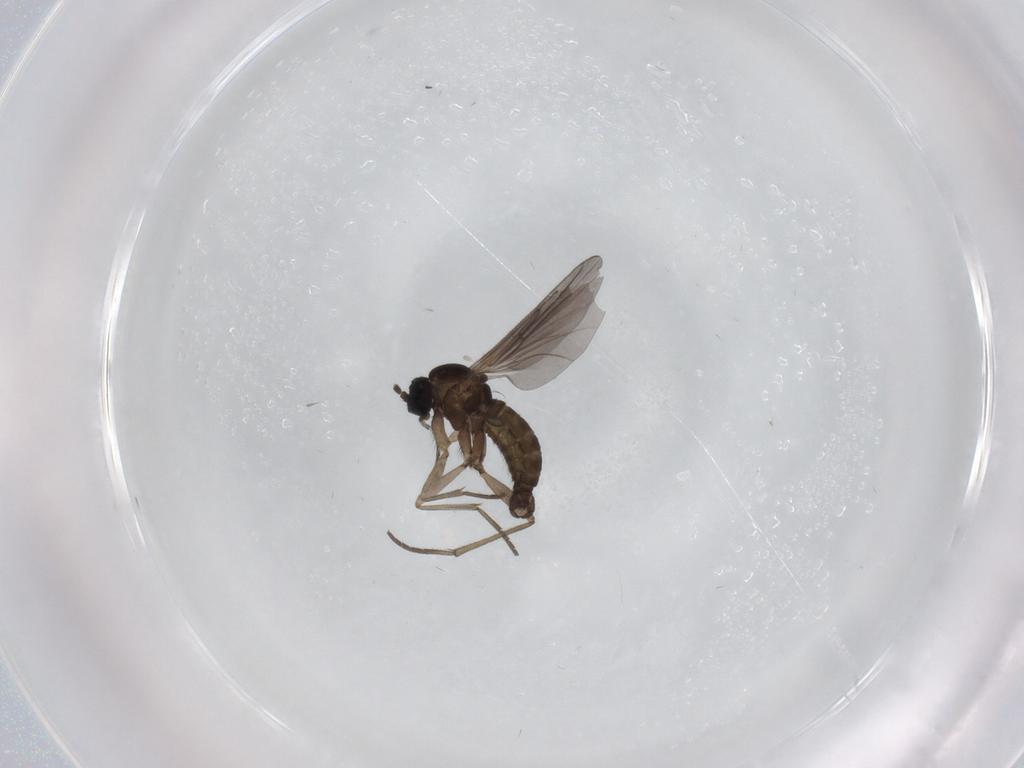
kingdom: Animalia
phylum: Arthropoda
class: Insecta
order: Diptera
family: Sciaridae
